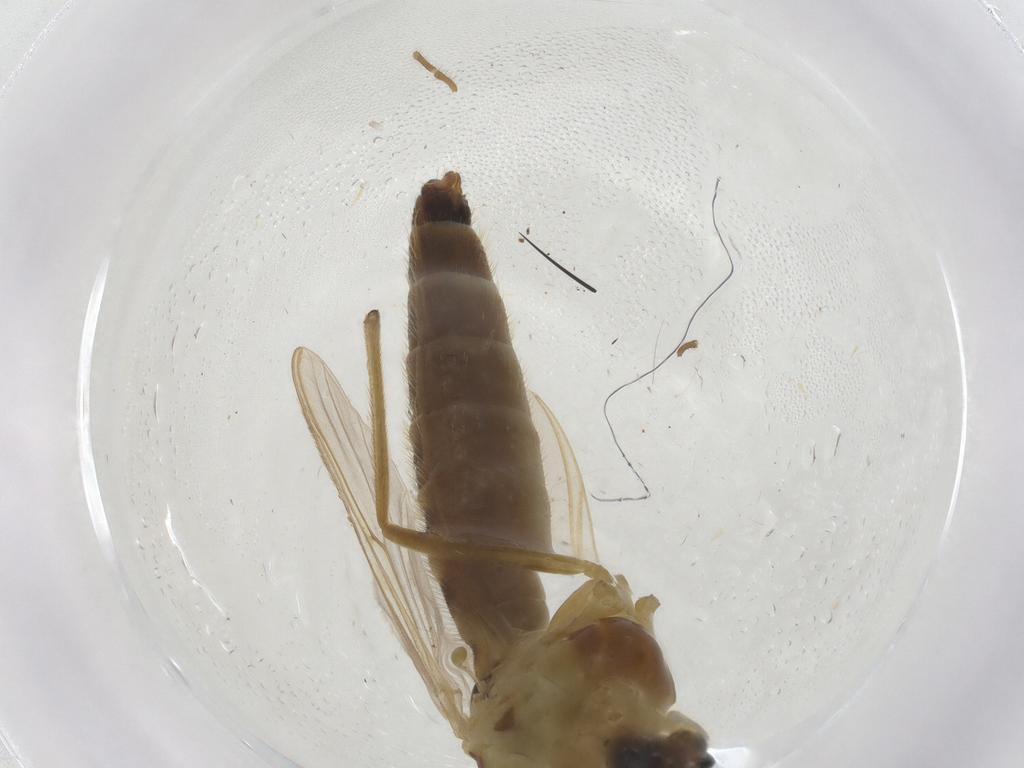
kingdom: Animalia
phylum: Arthropoda
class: Insecta
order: Diptera
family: Chironomidae
